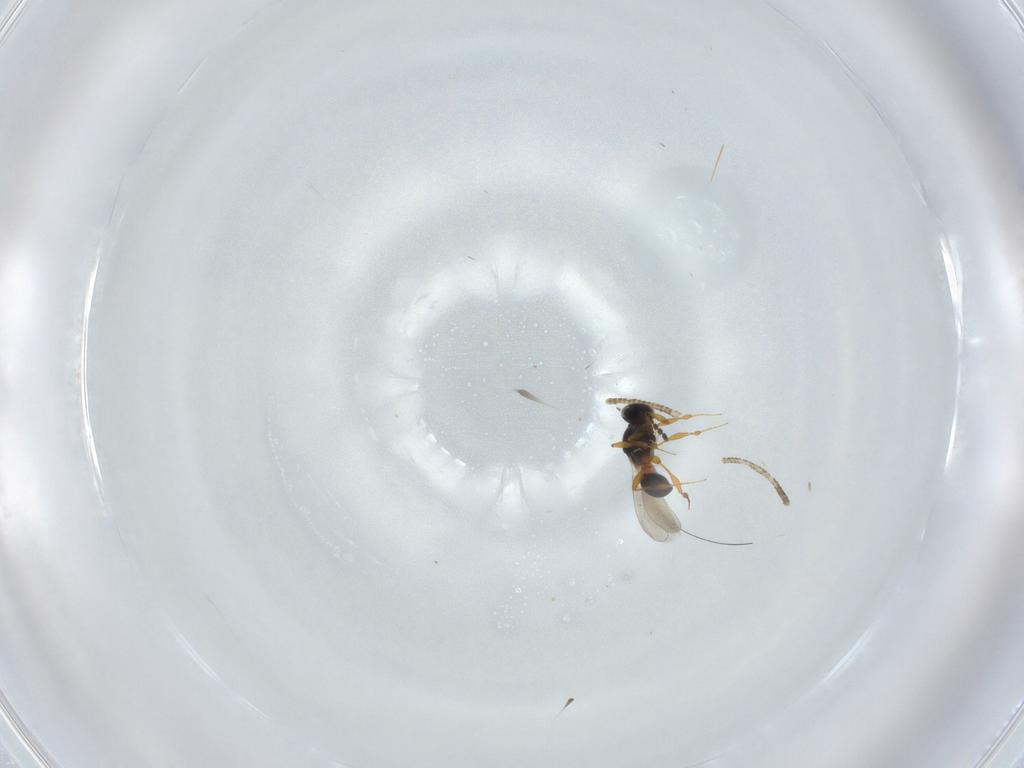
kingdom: Animalia
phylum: Arthropoda
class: Insecta
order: Hymenoptera
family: Platygastridae
